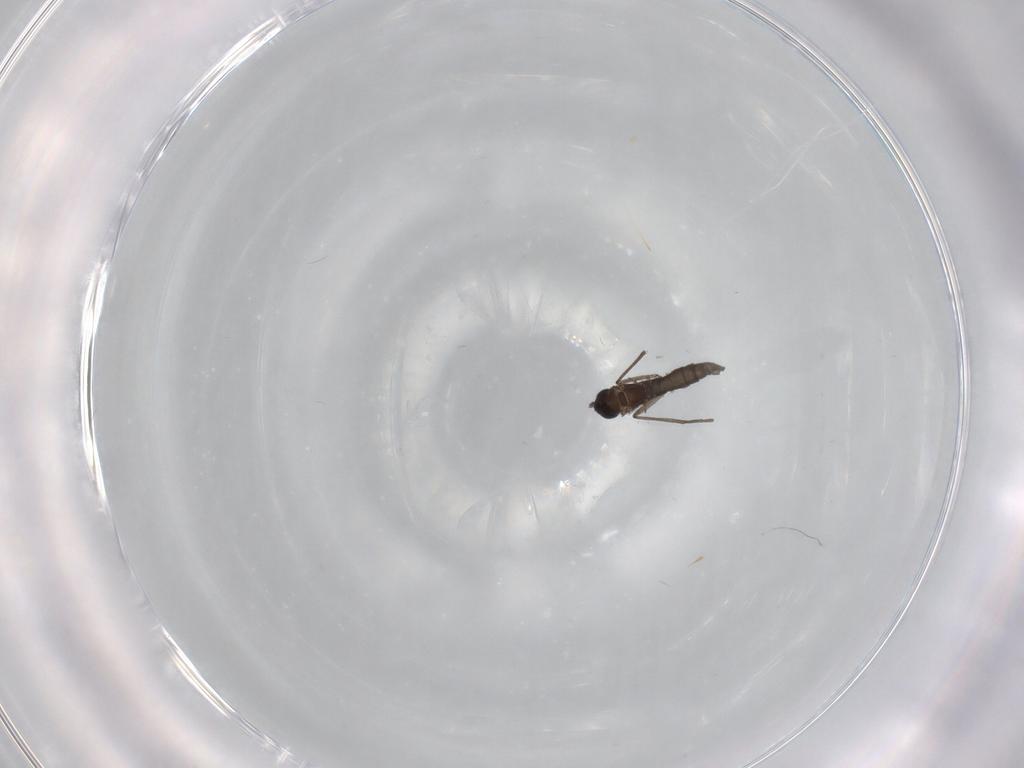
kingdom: Animalia
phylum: Arthropoda
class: Insecta
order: Diptera
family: Sciaridae
